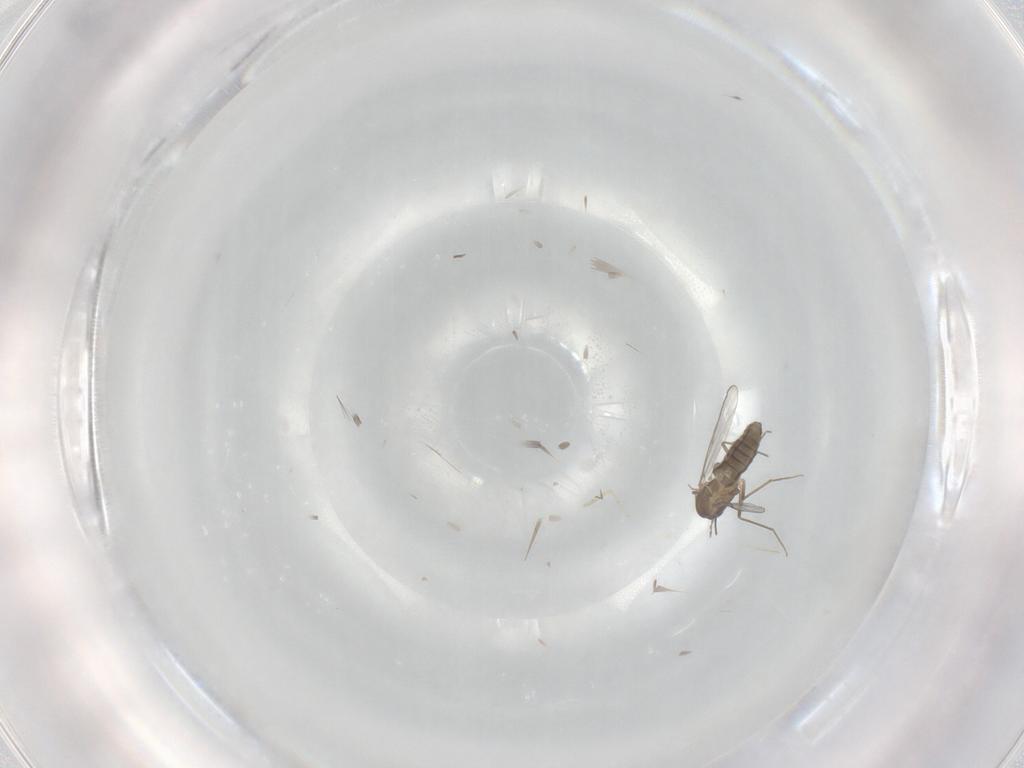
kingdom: Animalia
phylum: Arthropoda
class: Insecta
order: Diptera
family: Chironomidae
